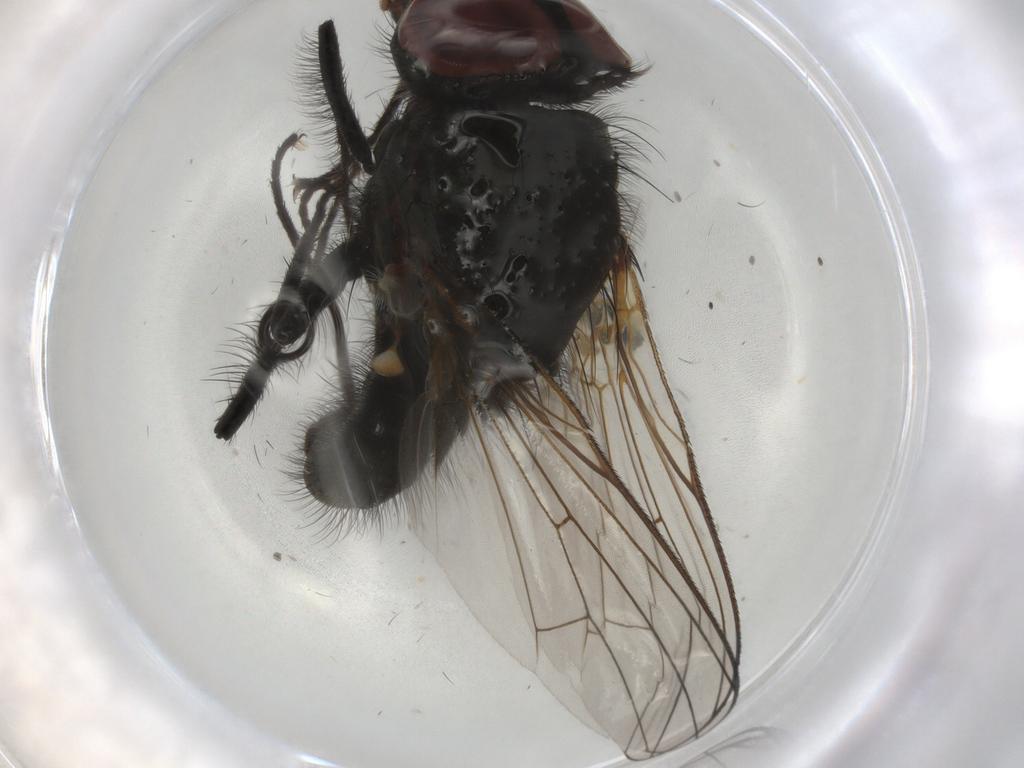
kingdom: Animalia
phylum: Arthropoda
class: Insecta
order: Diptera
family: Anthomyiidae
